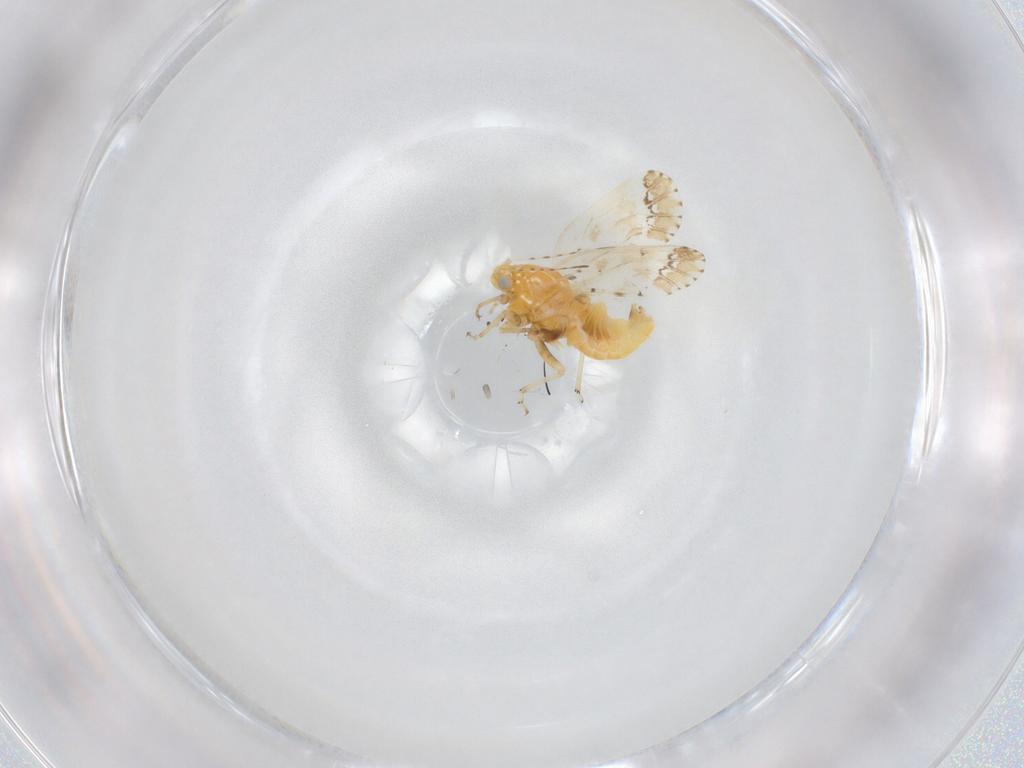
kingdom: Animalia
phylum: Arthropoda
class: Insecta
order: Hemiptera
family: Psyllidae
